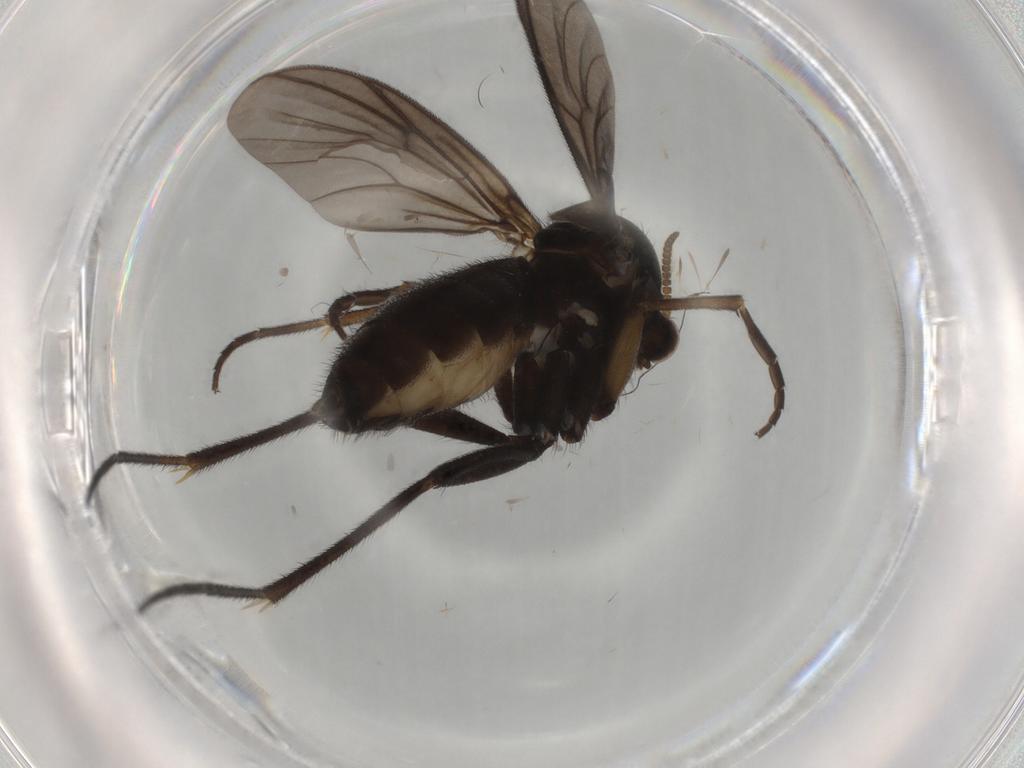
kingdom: Animalia
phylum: Arthropoda
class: Insecta
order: Diptera
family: Mycetophilidae
